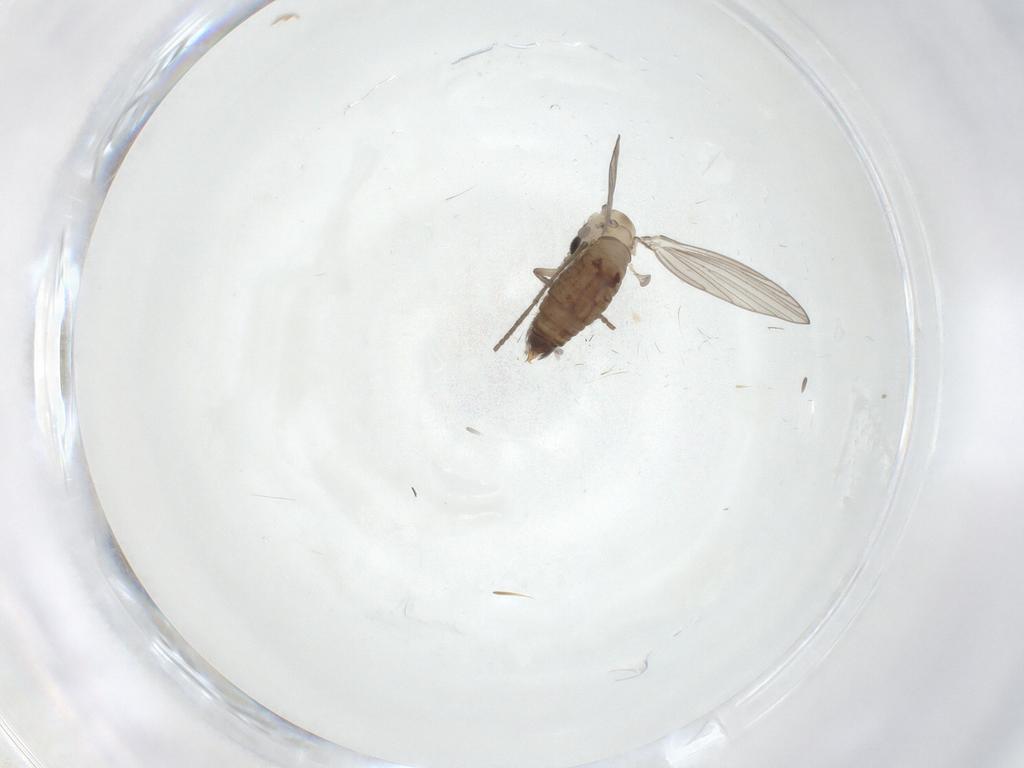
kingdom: Animalia
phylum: Arthropoda
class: Insecta
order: Diptera
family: Psychodidae
